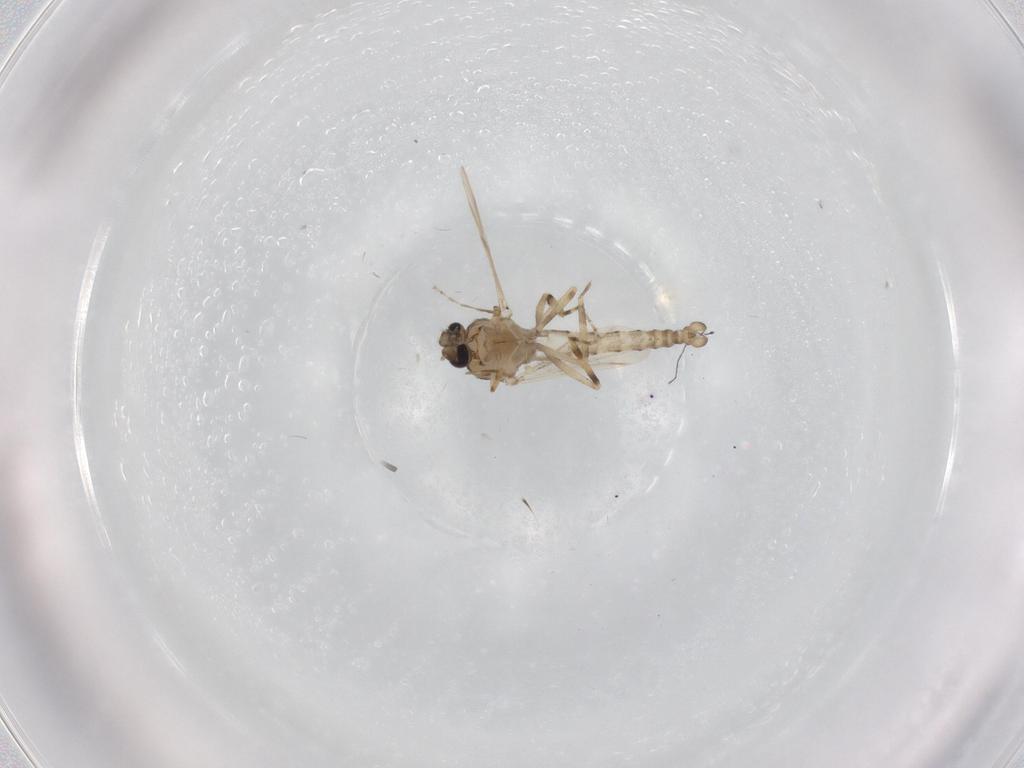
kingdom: Animalia
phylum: Arthropoda
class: Insecta
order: Diptera
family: Ceratopogonidae
